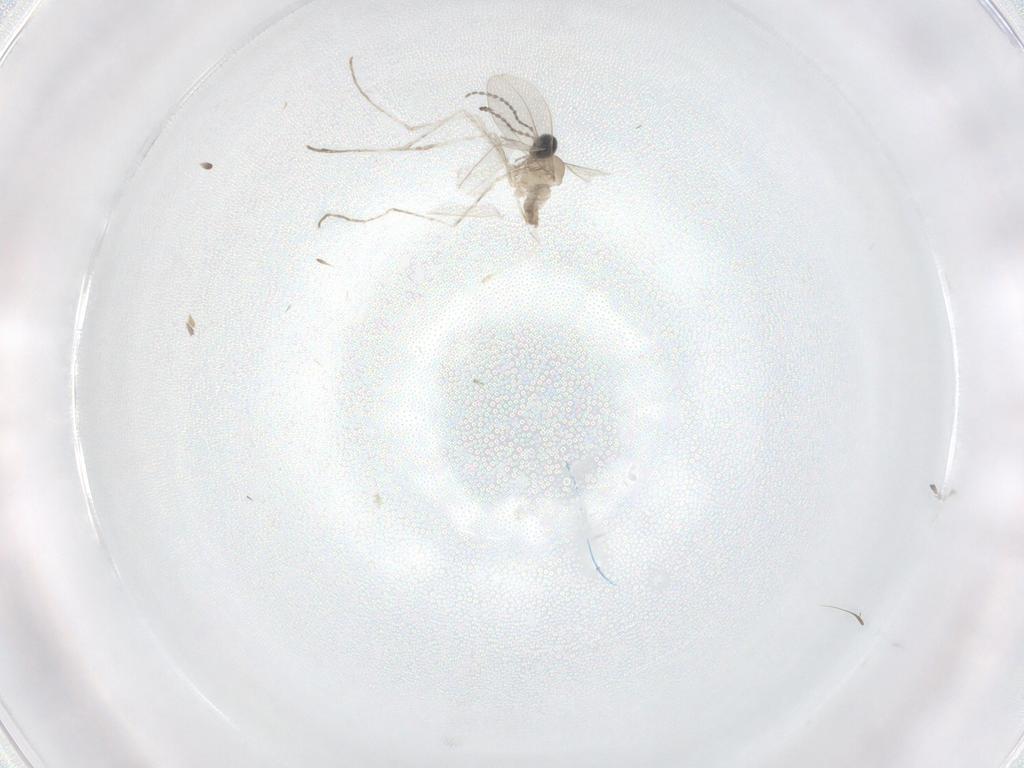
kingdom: Animalia
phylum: Arthropoda
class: Insecta
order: Diptera
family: Cecidomyiidae
